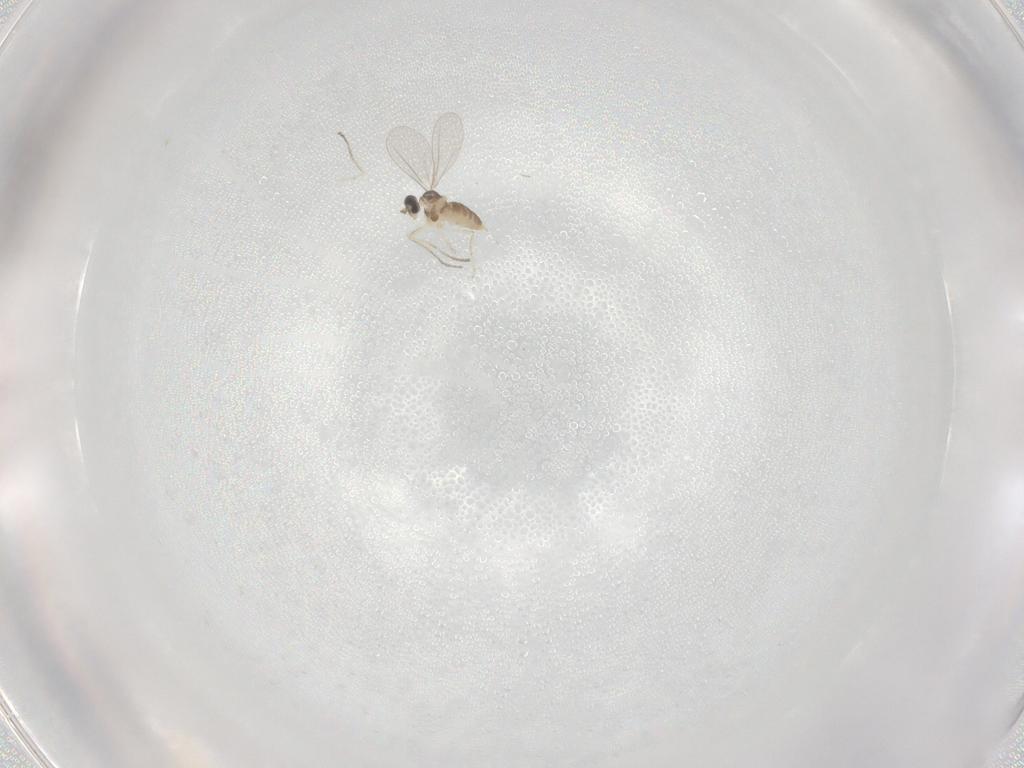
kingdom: Animalia
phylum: Arthropoda
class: Insecta
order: Diptera
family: Cecidomyiidae
